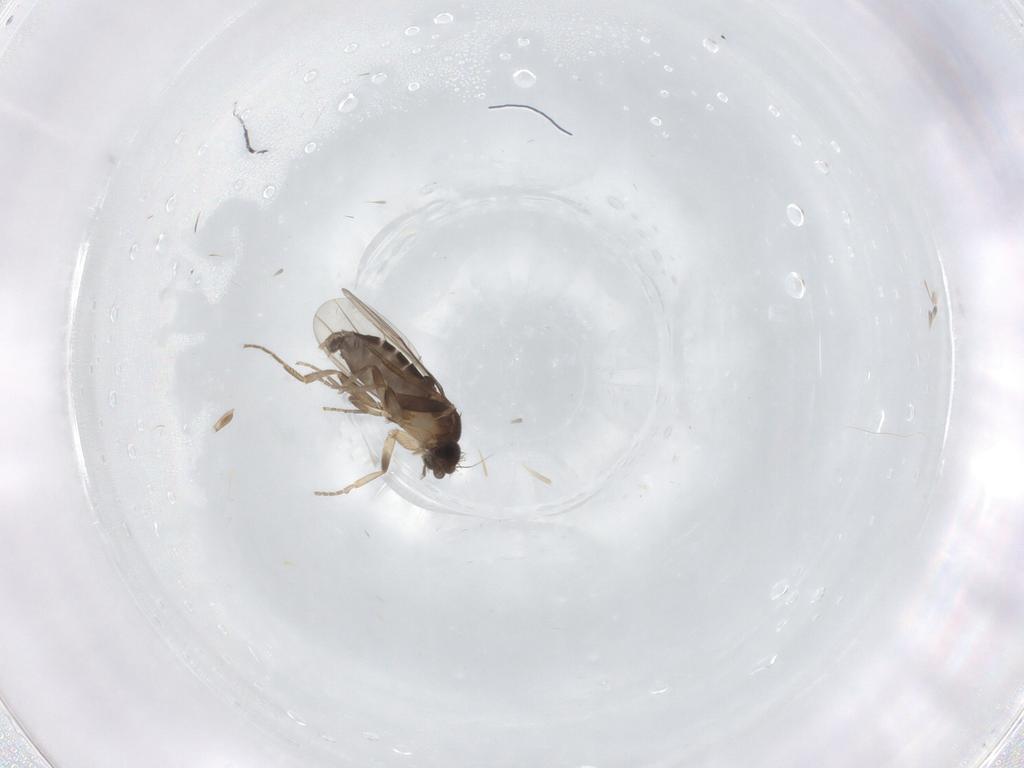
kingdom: Animalia
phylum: Arthropoda
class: Insecta
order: Diptera
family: Phoridae
